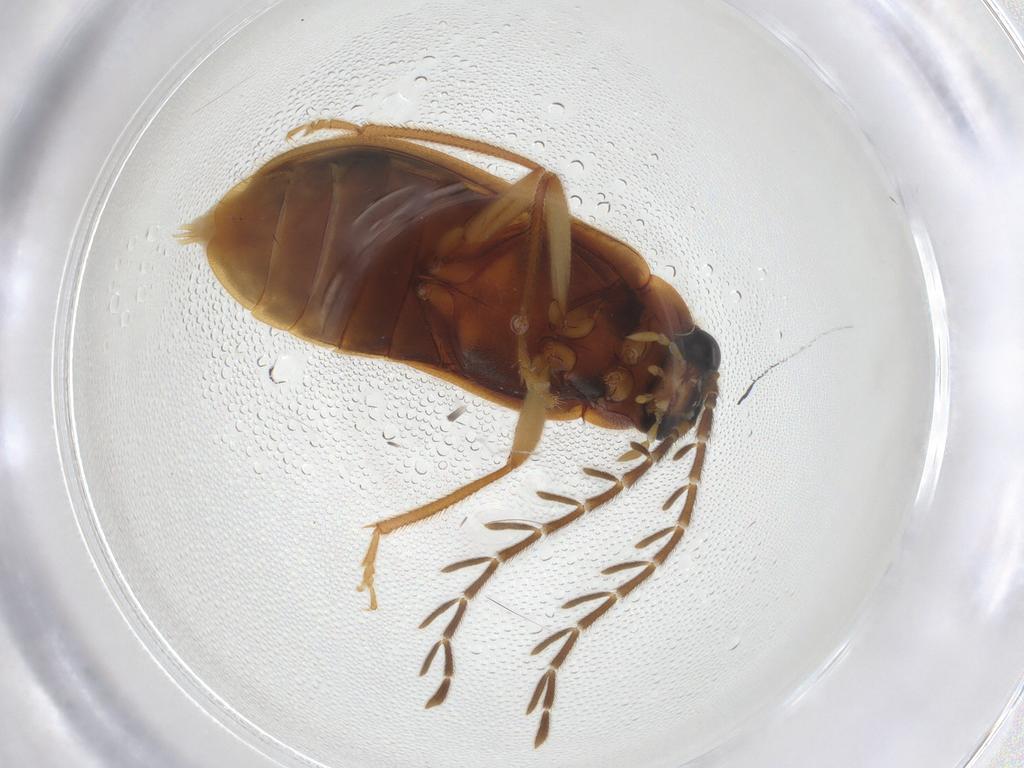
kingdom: Animalia
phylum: Arthropoda
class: Insecta
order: Coleoptera
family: Ptilodactylidae
